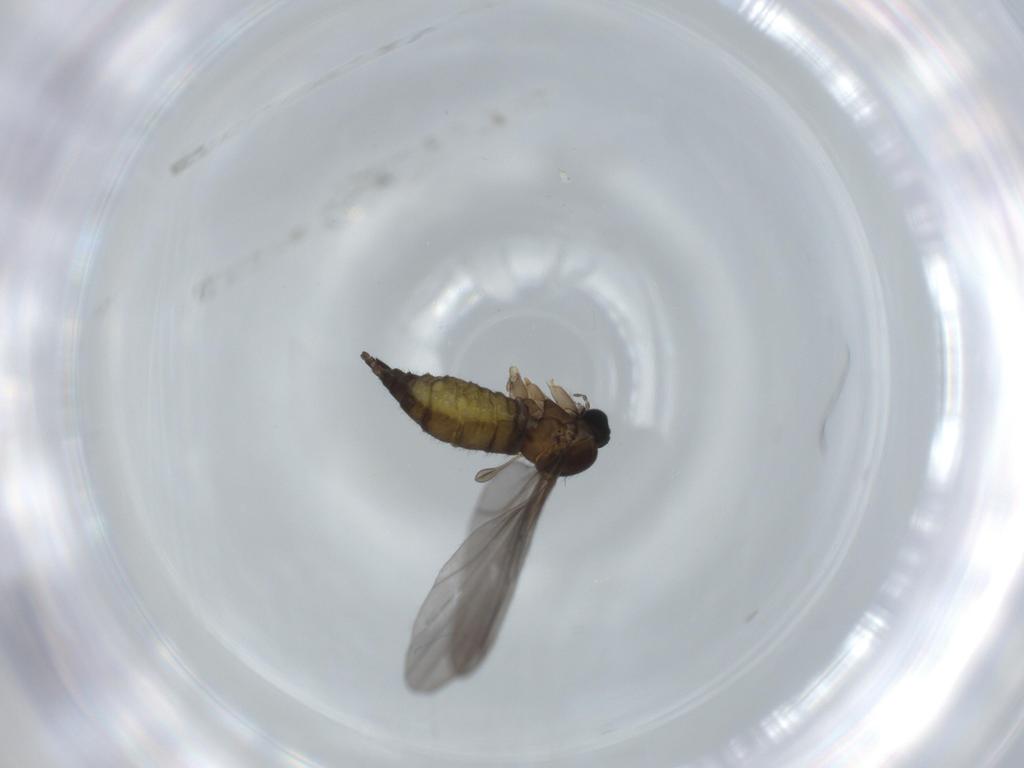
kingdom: Animalia
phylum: Arthropoda
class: Insecta
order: Diptera
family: Sciaridae
